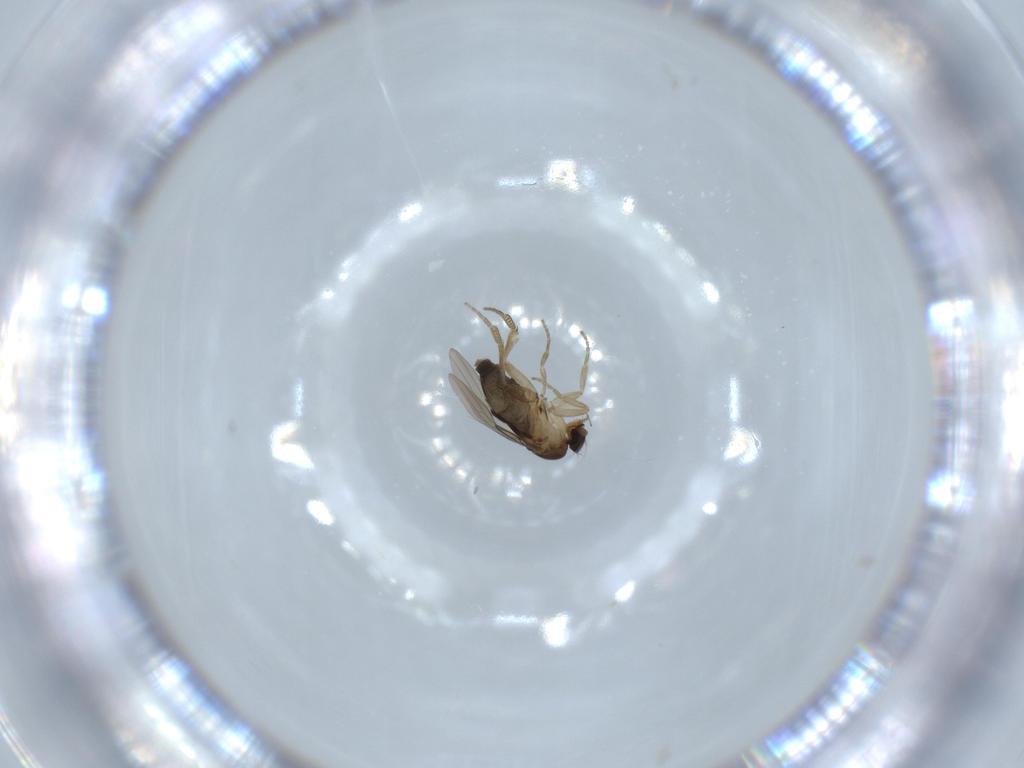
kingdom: Animalia
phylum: Arthropoda
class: Insecta
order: Diptera
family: Phoridae
